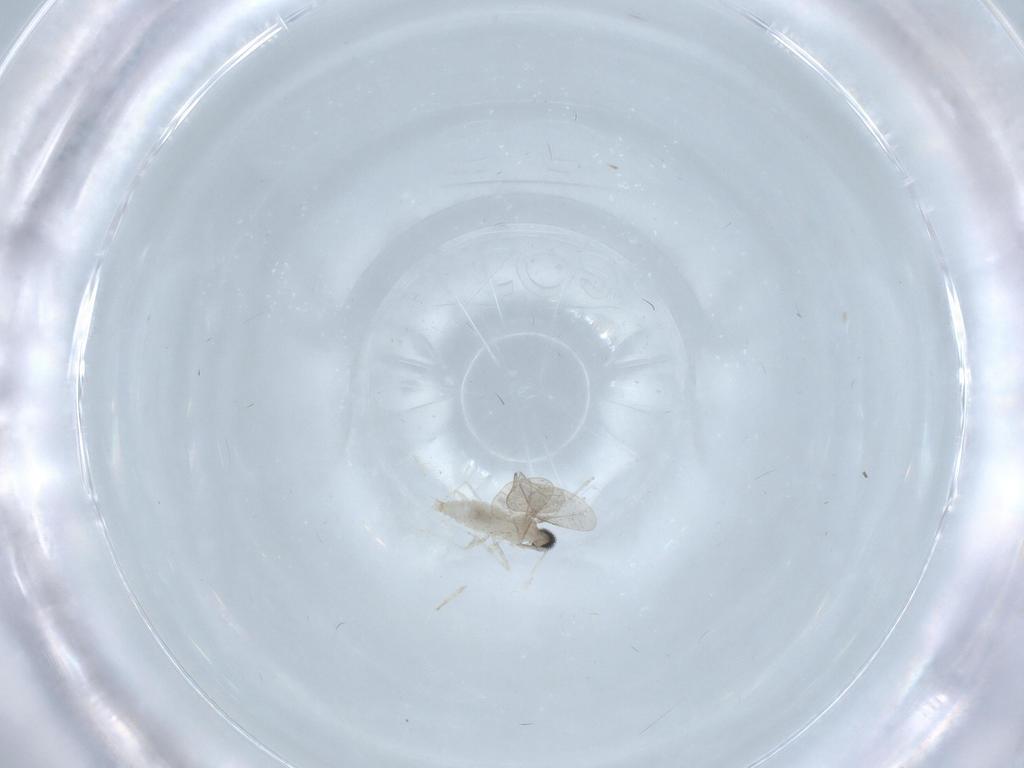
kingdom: Animalia
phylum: Arthropoda
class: Insecta
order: Diptera
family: Cecidomyiidae
